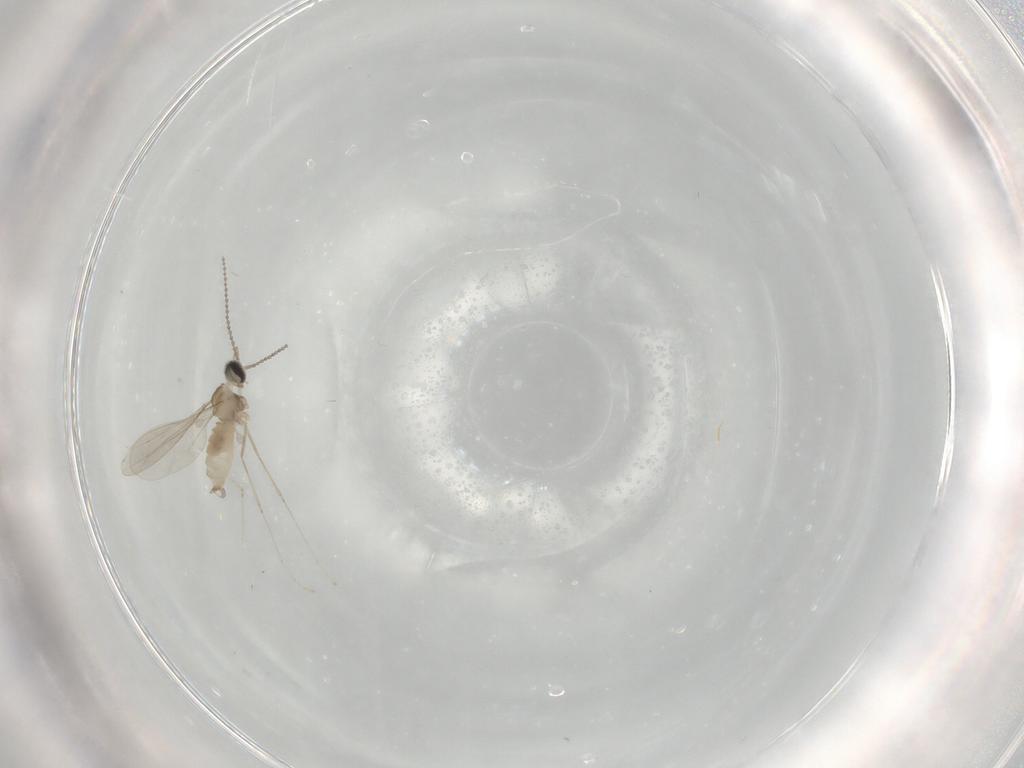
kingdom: Animalia
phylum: Arthropoda
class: Insecta
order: Diptera
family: Cecidomyiidae
